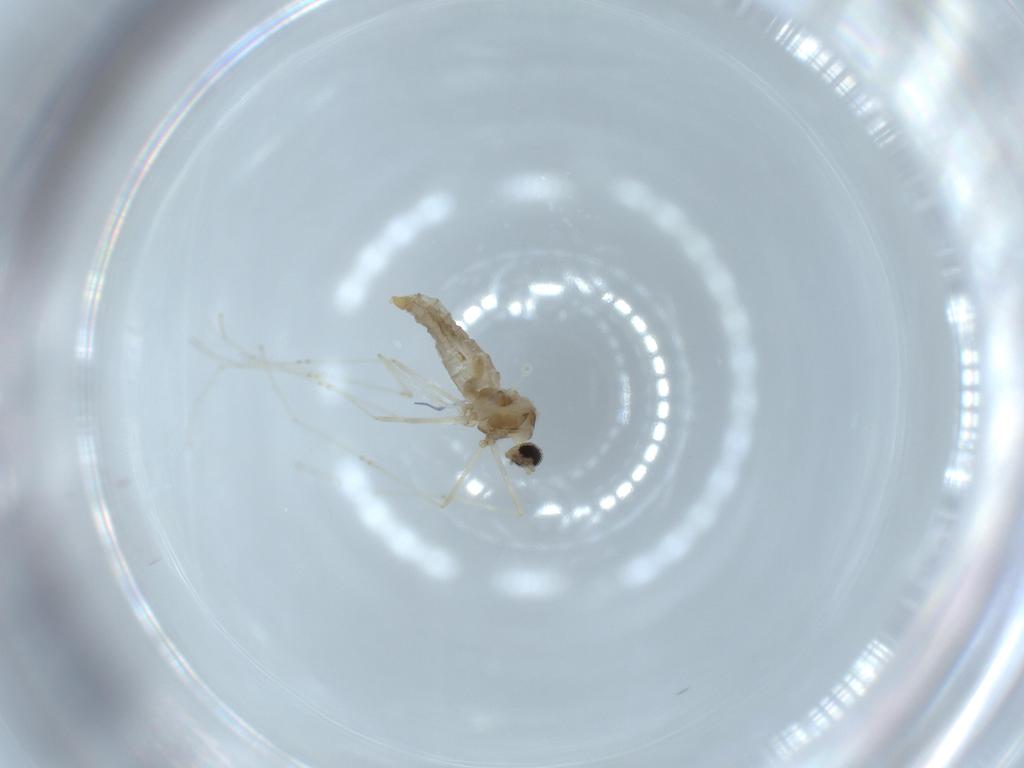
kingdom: Animalia
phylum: Arthropoda
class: Insecta
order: Diptera
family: Cecidomyiidae
